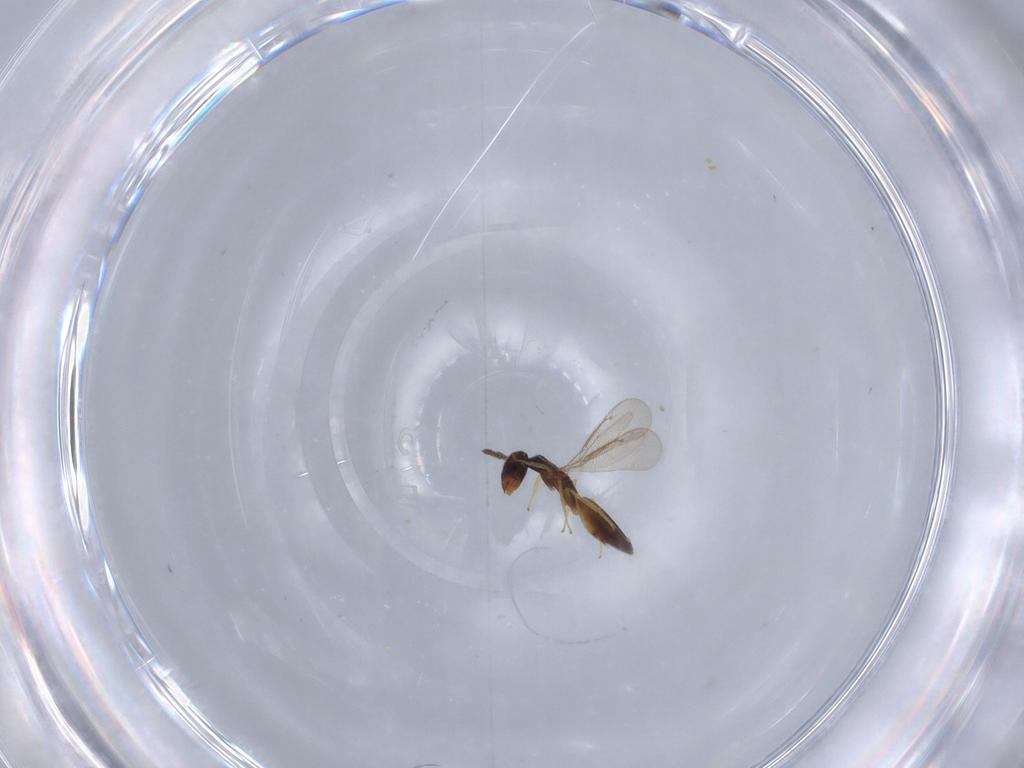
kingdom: Animalia
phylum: Arthropoda
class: Insecta
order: Hymenoptera
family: Eulophidae
